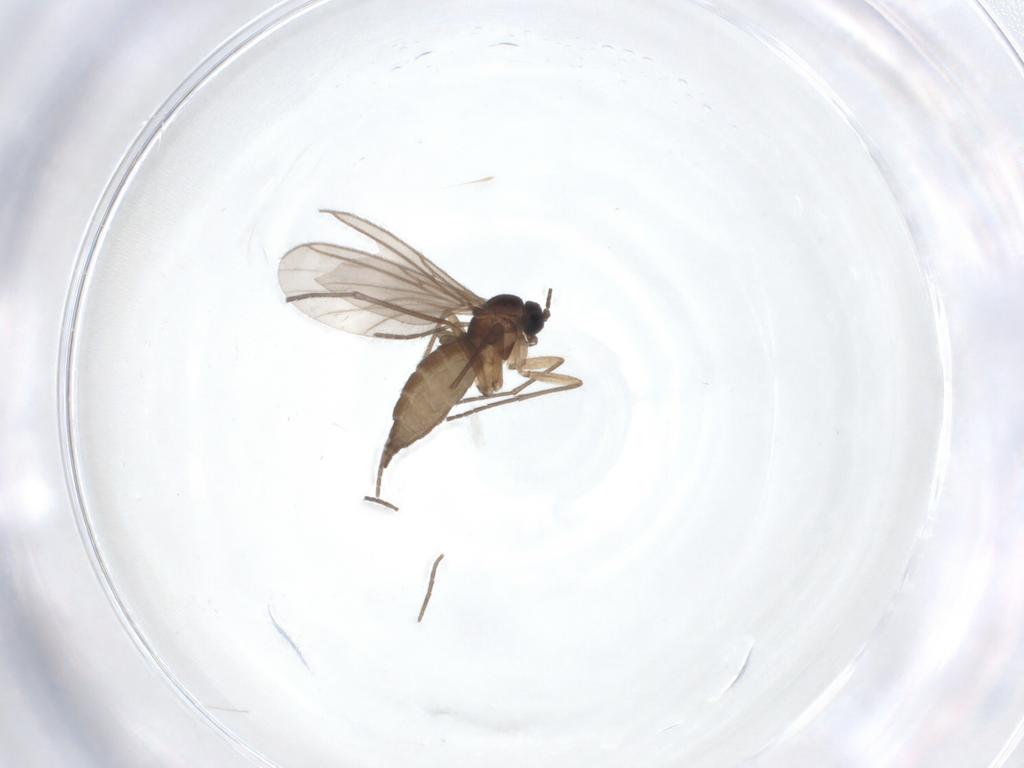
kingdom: Animalia
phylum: Arthropoda
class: Insecta
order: Diptera
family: Sciaridae
